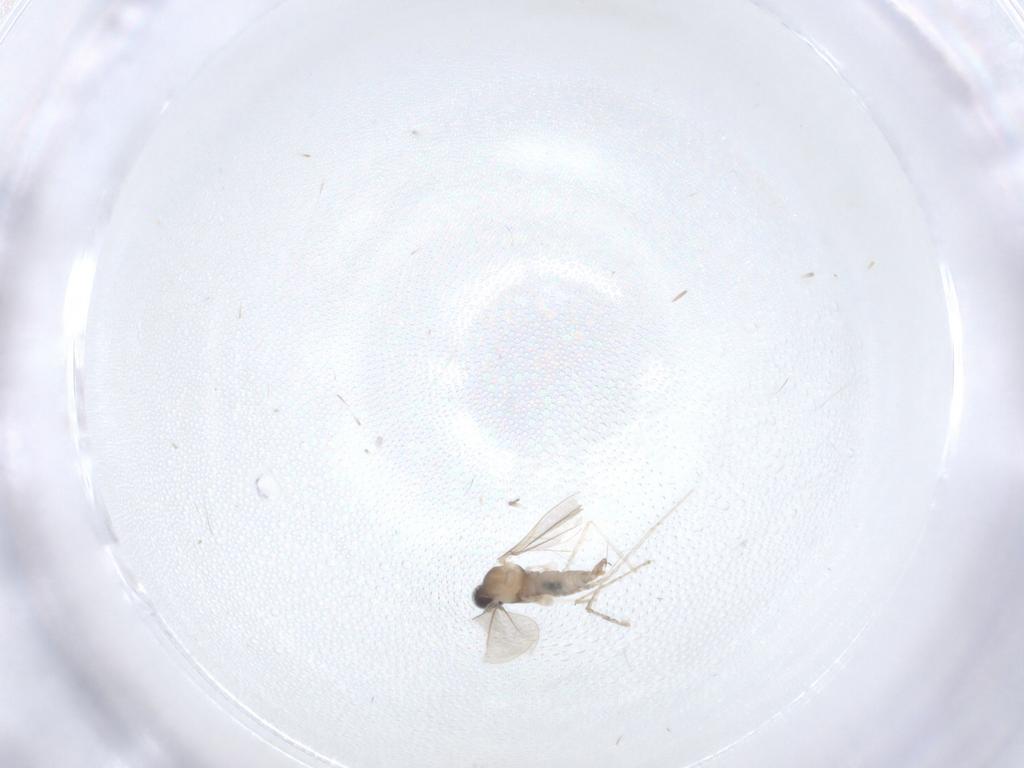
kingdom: Animalia
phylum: Arthropoda
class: Insecta
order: Diptera
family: Cecidomyiidae
